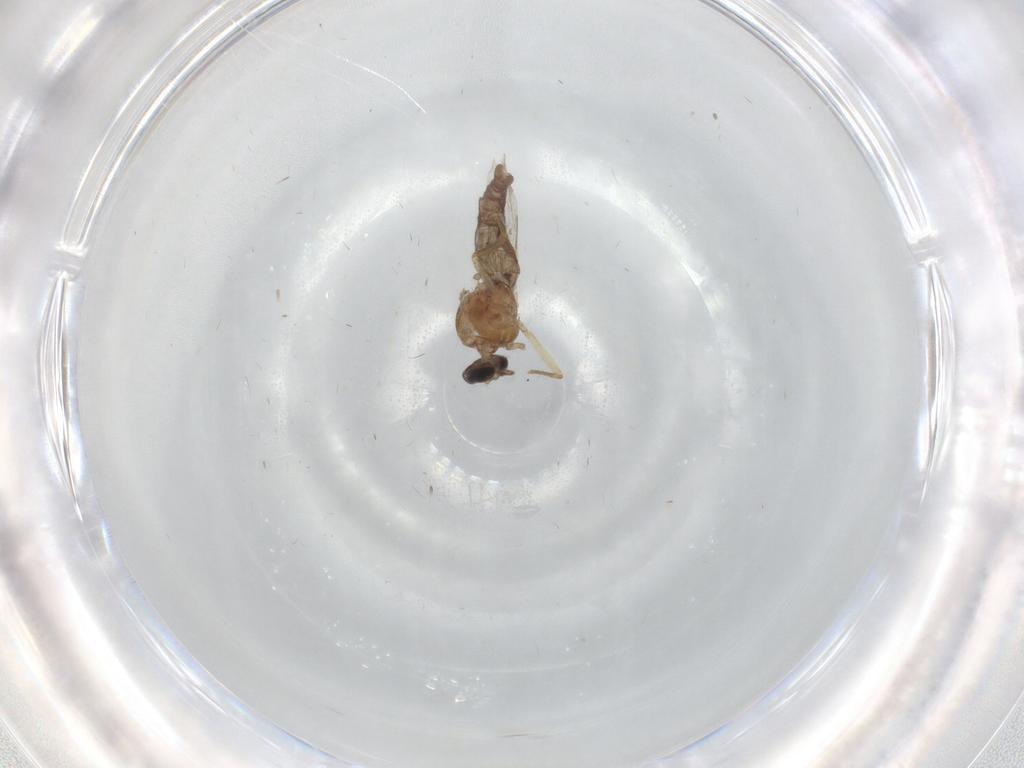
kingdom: Animalia
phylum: Arthropoda
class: Insecta
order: Diptera
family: Ceratopogonidae
